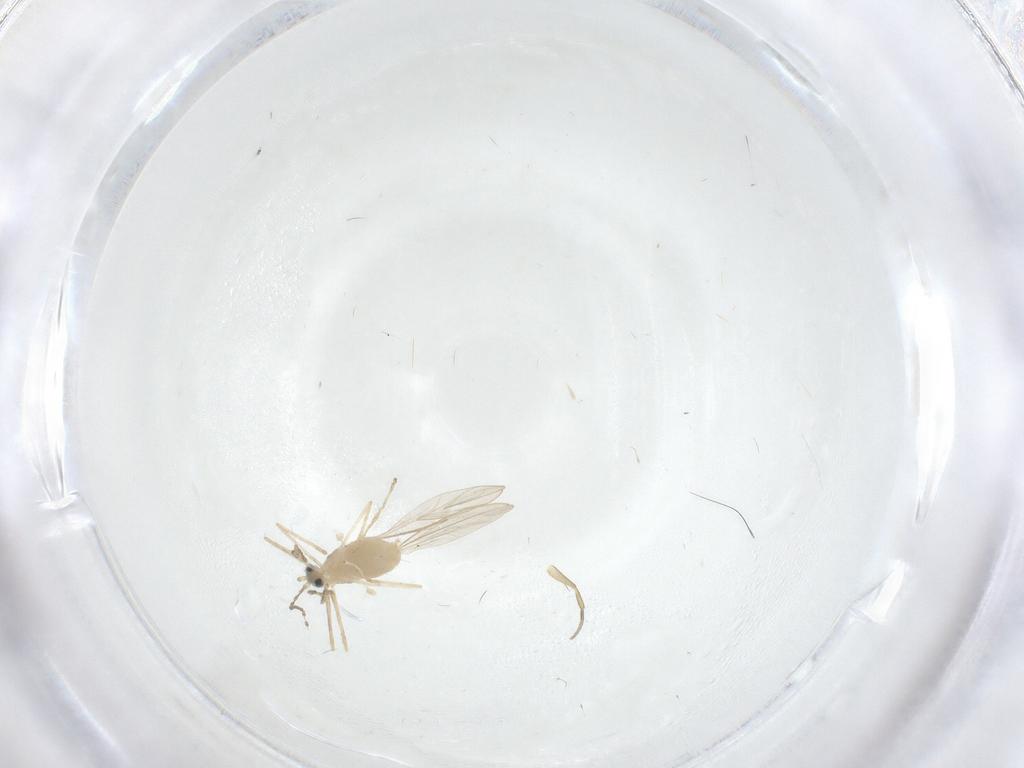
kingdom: Animalia
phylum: Arthropoda
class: Insecta
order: Diptera
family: Cecidomyiidae
